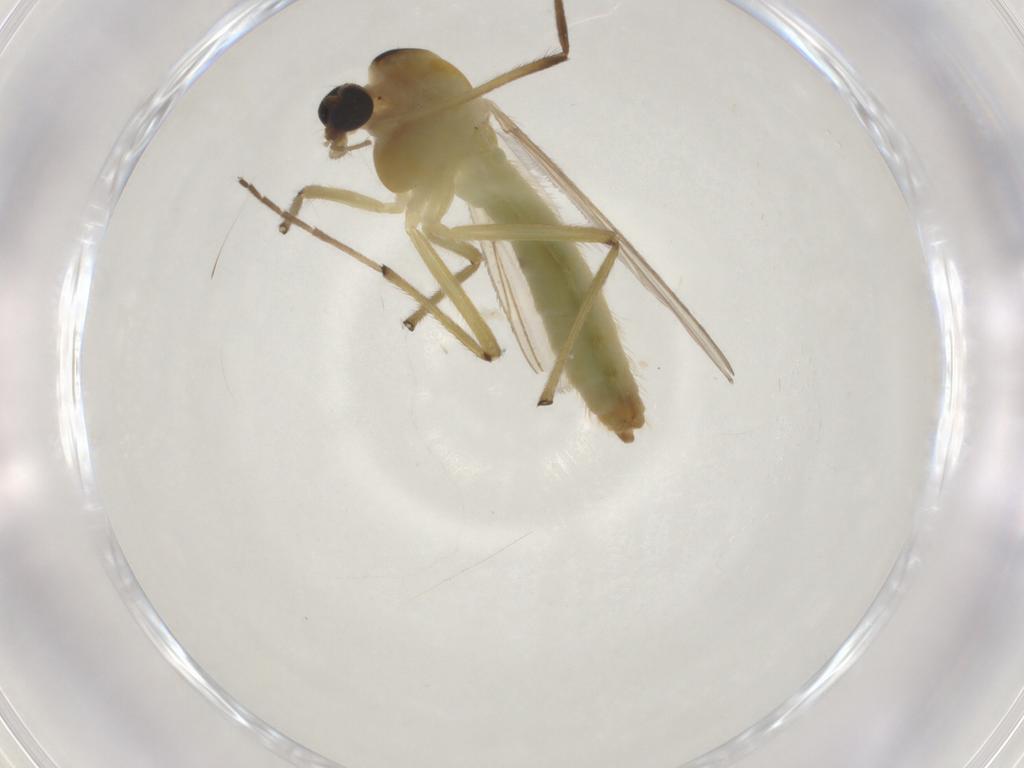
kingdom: Animalia
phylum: Arthropoda
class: Insecta
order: Diptera
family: Chironomidae
